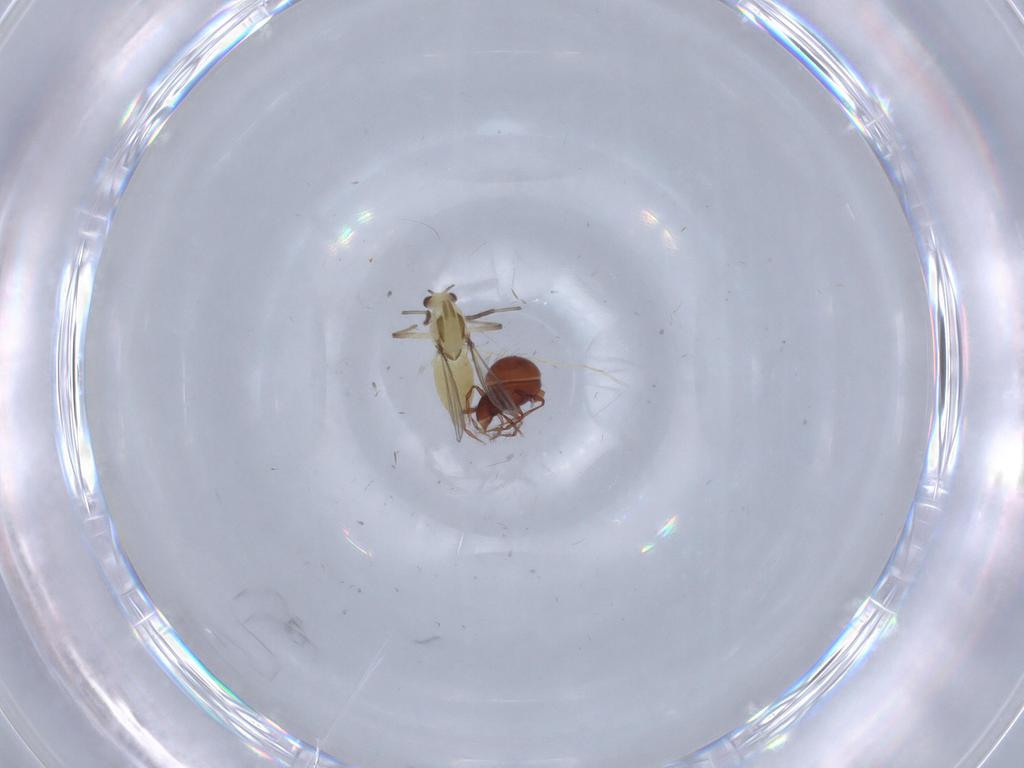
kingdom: Animalia
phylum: Arthropoda
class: Insecta
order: Diptera
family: Chironomidae
